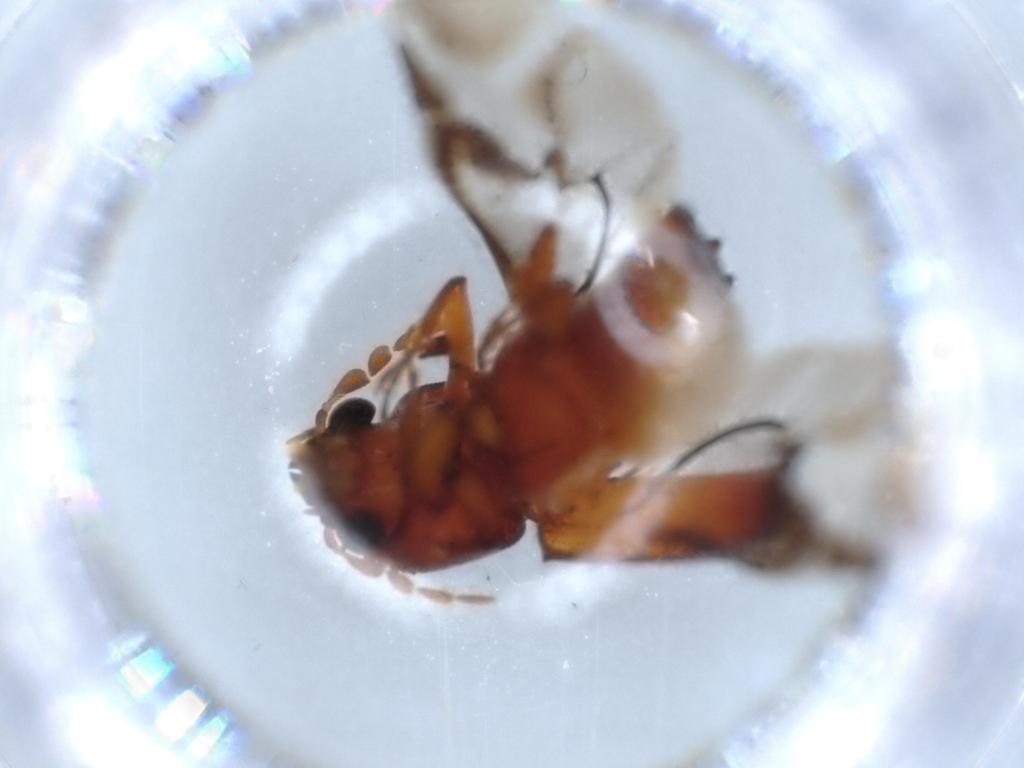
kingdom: Animalia
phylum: Arthropoda
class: Insecta
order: Coleoptera
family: Bostrichidae
